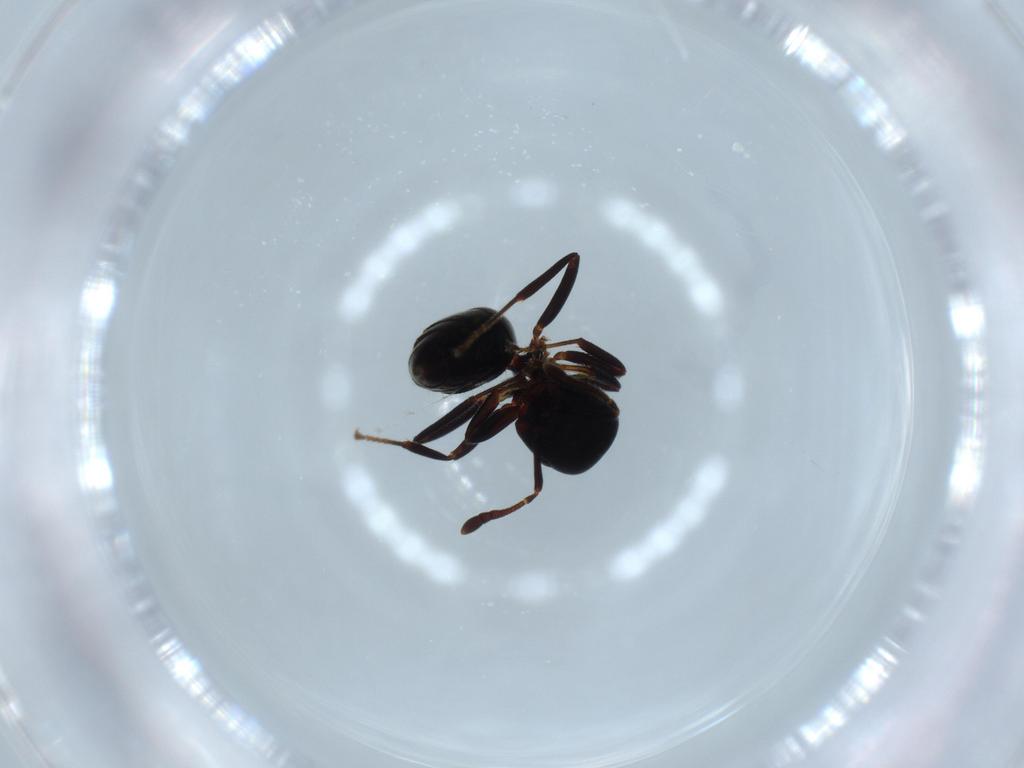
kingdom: Animalia
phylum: Arthropoda
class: Insecta
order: Hymenoptera
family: Formicidae
